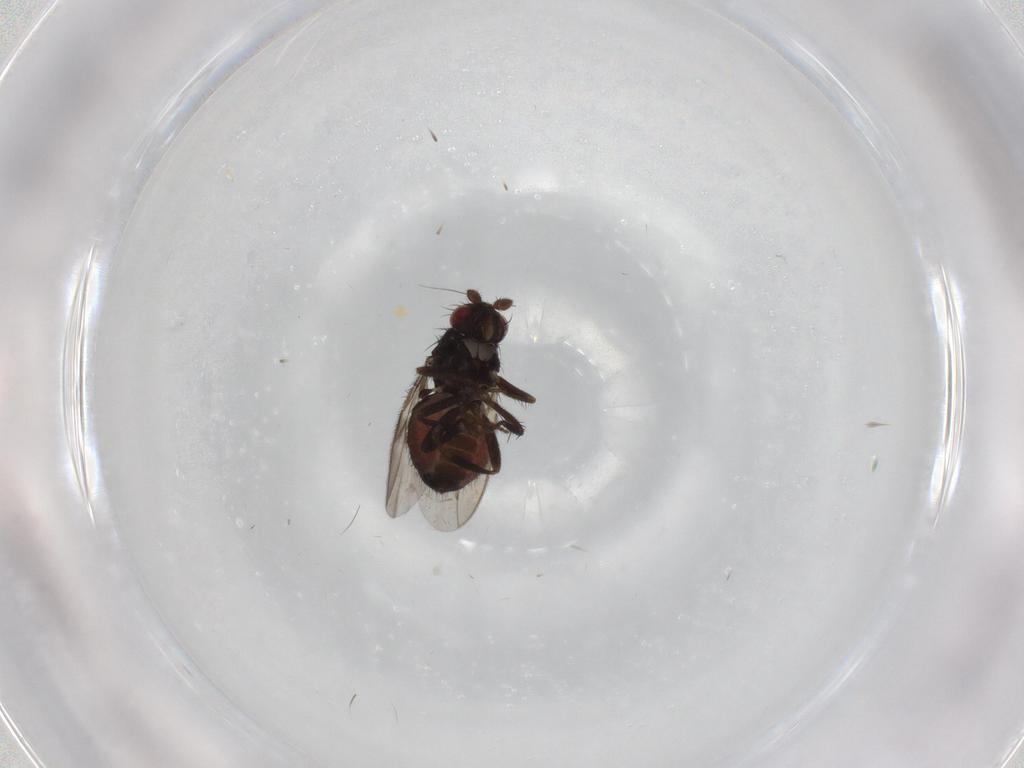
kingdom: Animalia
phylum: Arthropoda
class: Insecta
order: Diptera
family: Sphaeroceridae
